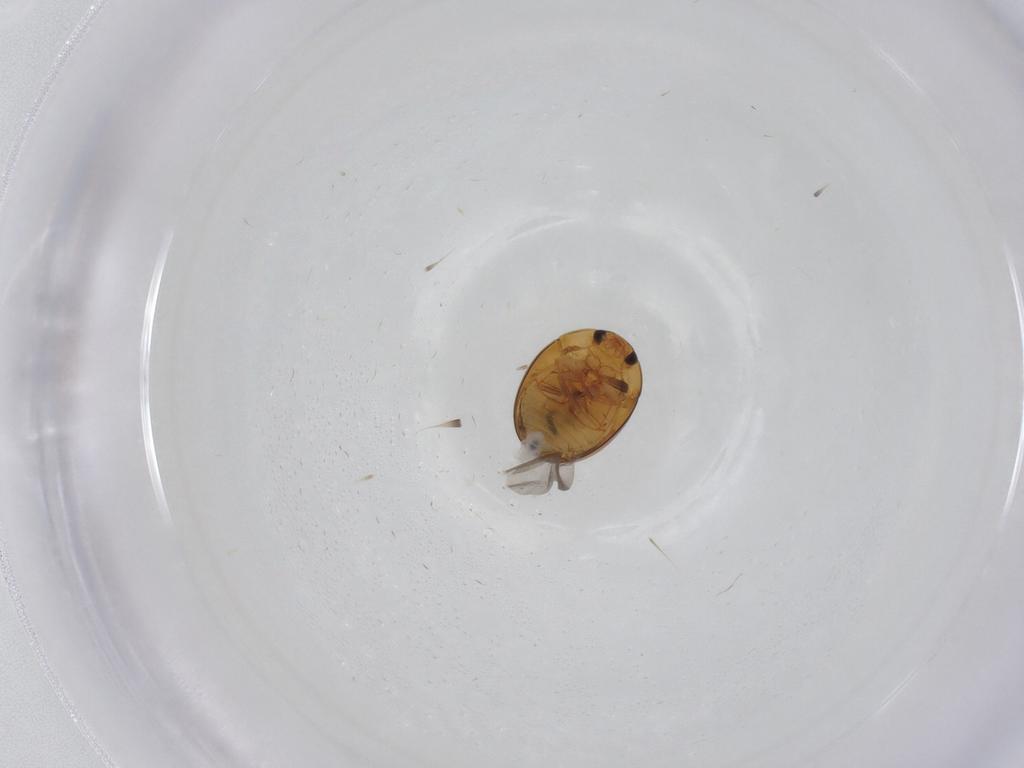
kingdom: Animalia
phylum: Arthropoda
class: Insecta
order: Coleoptera
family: Phalacridae
